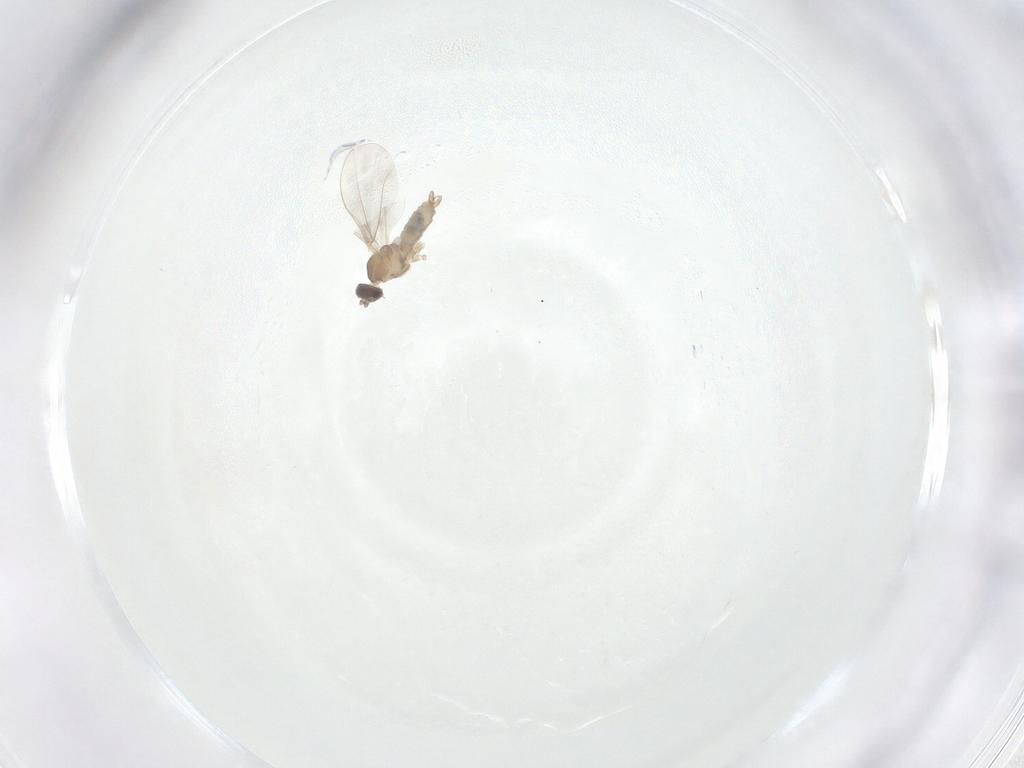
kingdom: Animalia
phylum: Arthropoda
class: Insecta
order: Diptera
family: Cecidomyiidae
